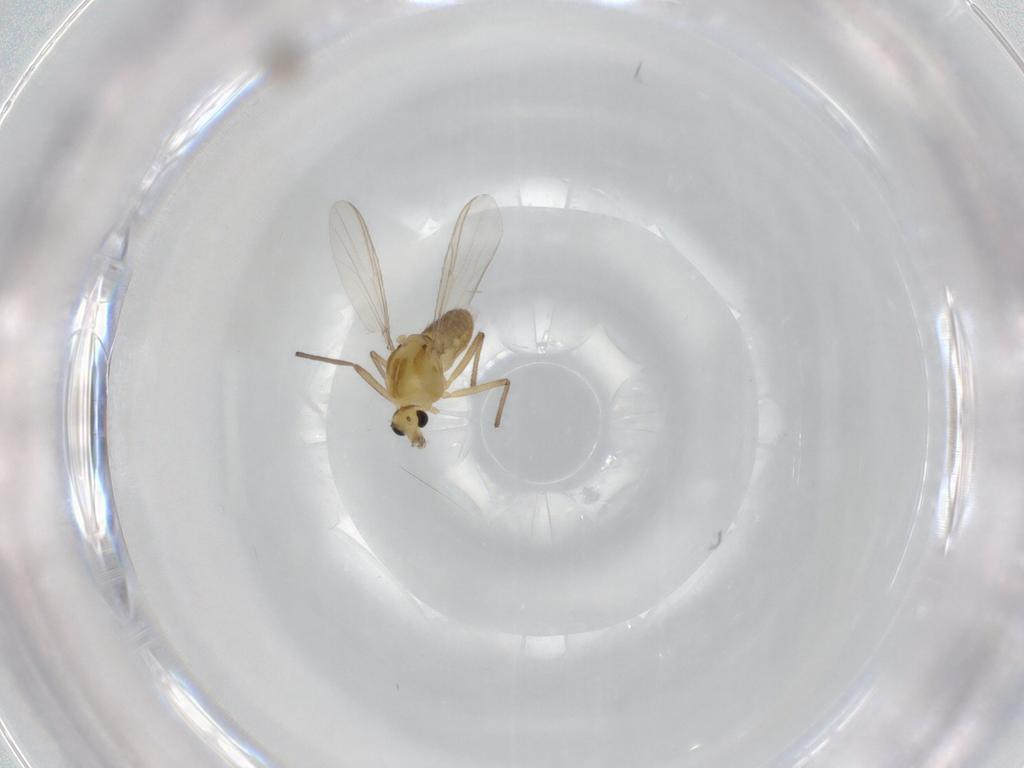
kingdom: Animalia
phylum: Arthropoda
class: Insecta
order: Diptera
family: Chironomidae
